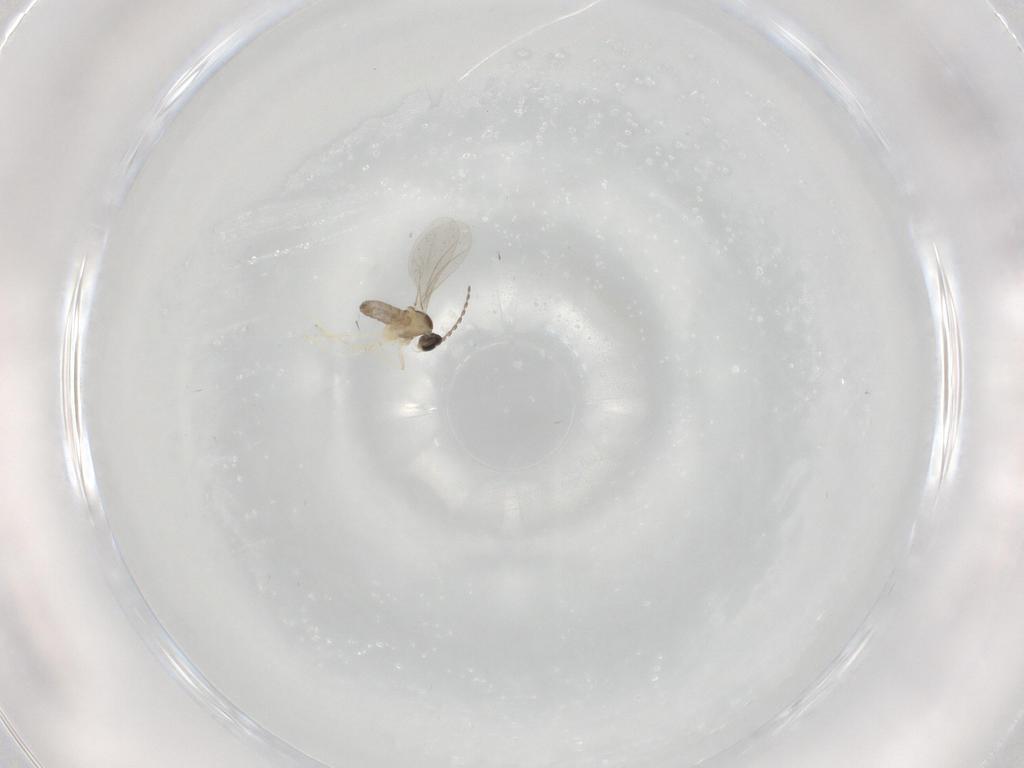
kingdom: Animalia
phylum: Arthropoda
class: Insecta
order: Diptera
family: Cecidomyiidae
